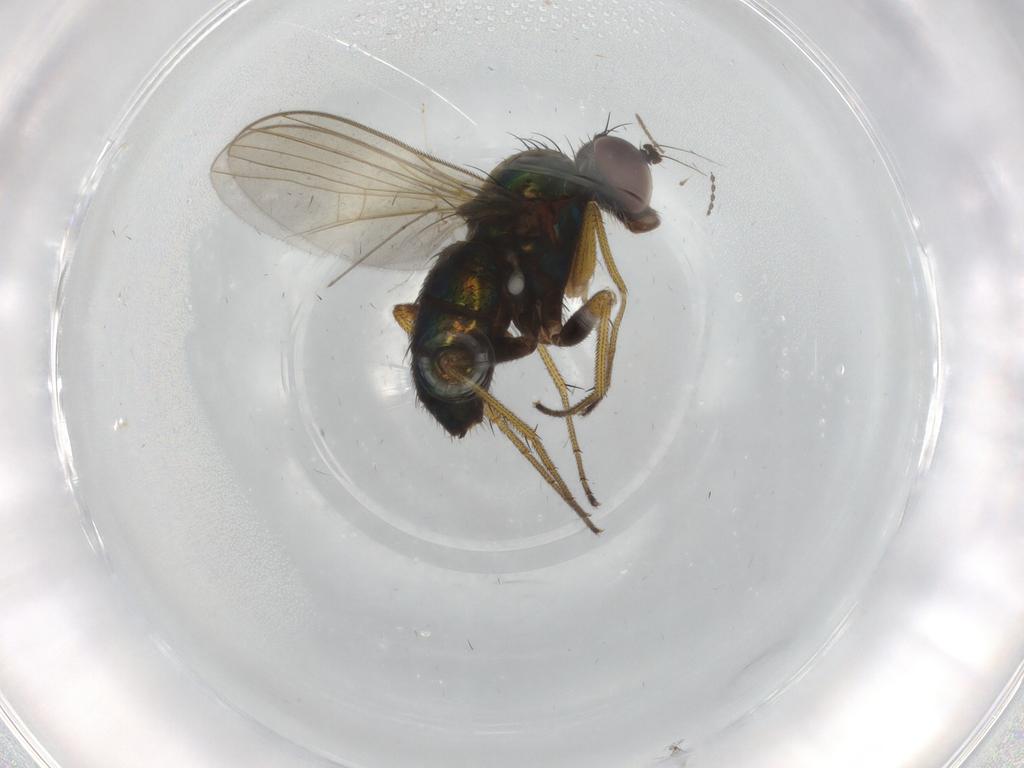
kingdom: Animalia
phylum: Arthropoda
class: Insecta
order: Diptera
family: Dolichopodidae
